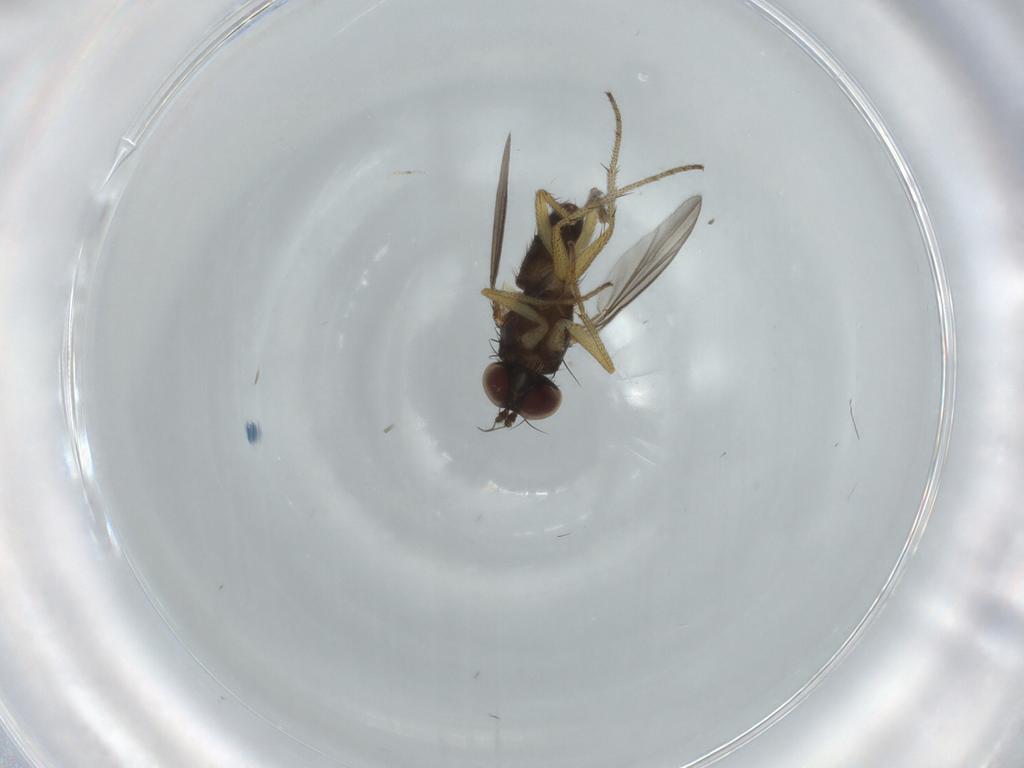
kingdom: Animalia
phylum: Arthropoda
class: Insecta
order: Diptera
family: Dolichopodidae
